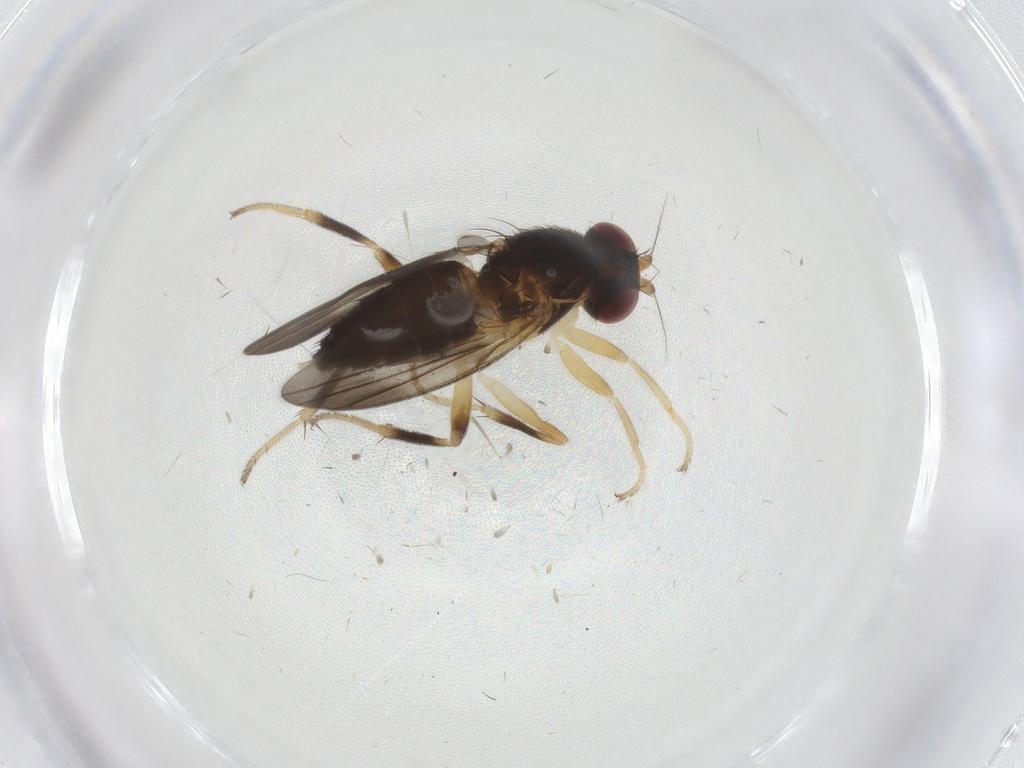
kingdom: Animalia
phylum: Arthropoda
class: Insecta
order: Diptera
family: Clusiidae
